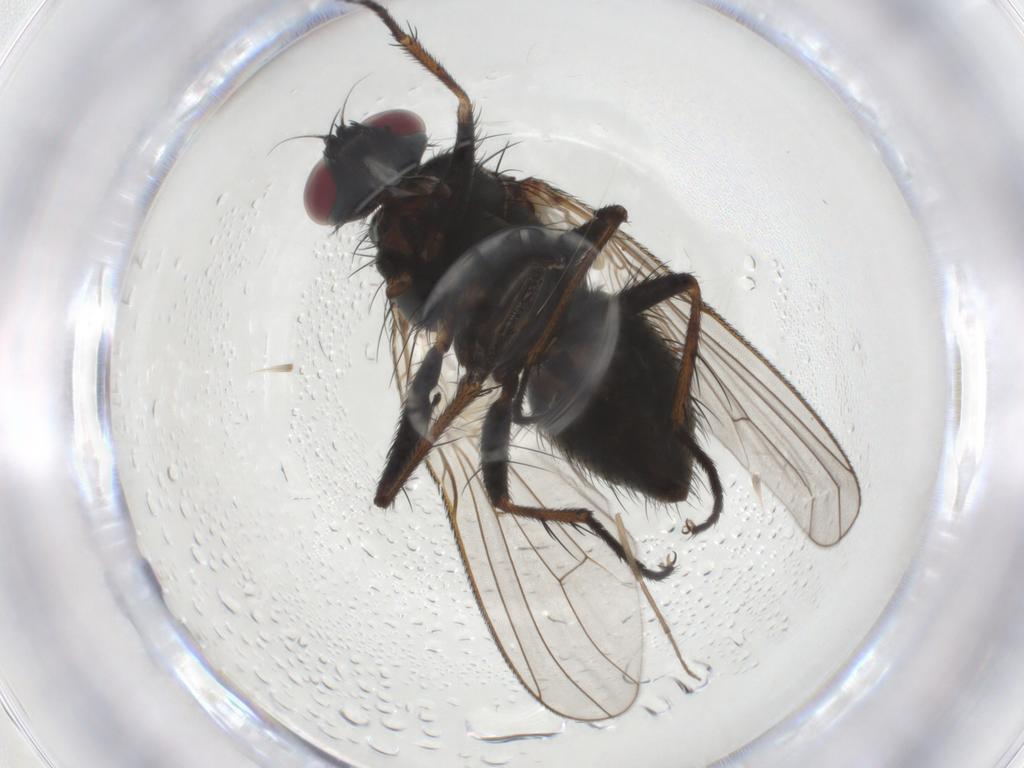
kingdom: Animalia
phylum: Arthropoda
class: Insecta
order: Diptera
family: Muscidae
